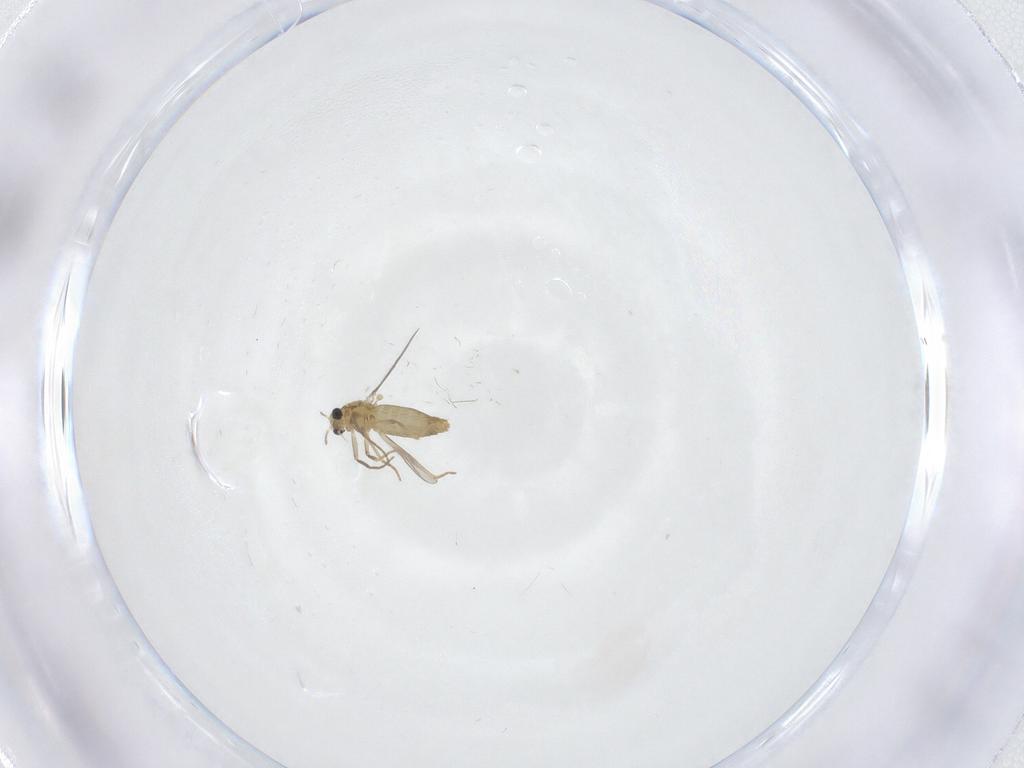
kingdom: Animalia
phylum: Arthropoda
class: Insecta
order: Diptera
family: Chironomidae
